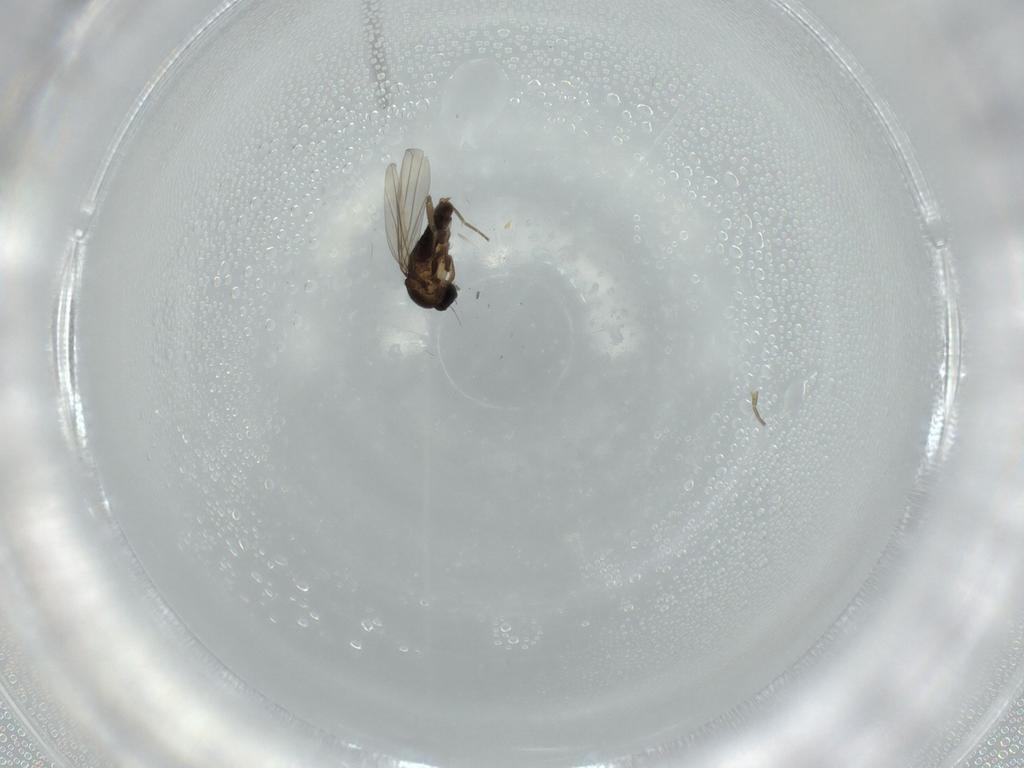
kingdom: Animalia
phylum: Arthropoda
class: Insecta
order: Diptera
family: Phoridae
